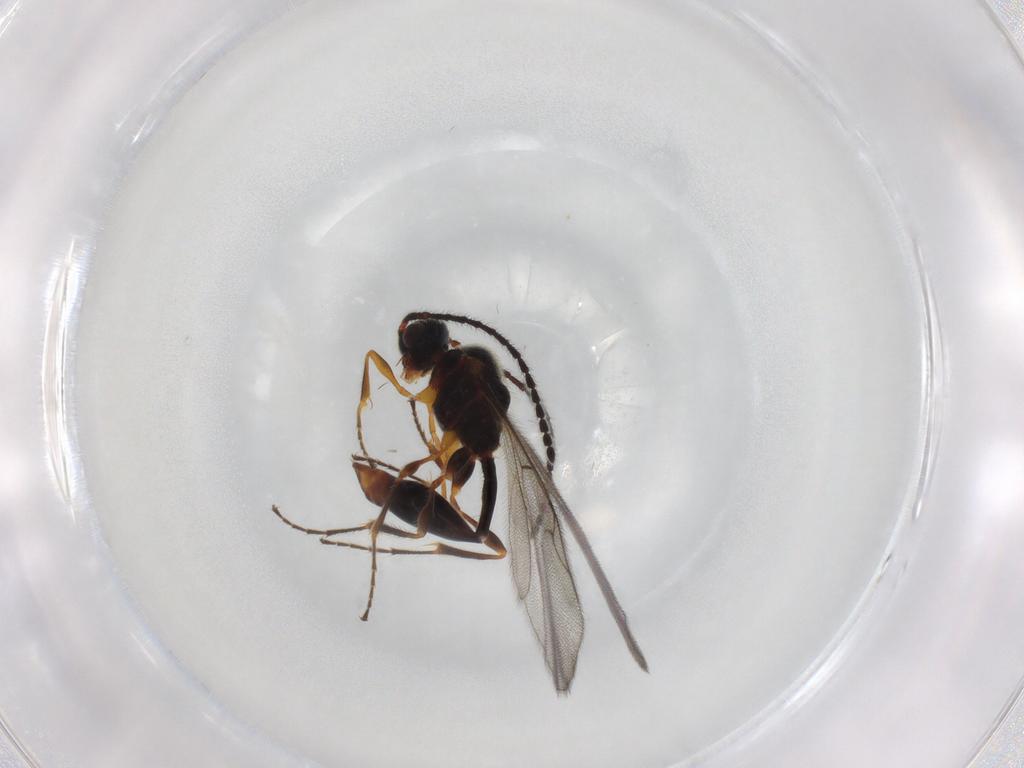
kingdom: Animalia
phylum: Arthropoda
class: Insecta
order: Hymenoptera
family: Diapriidae
